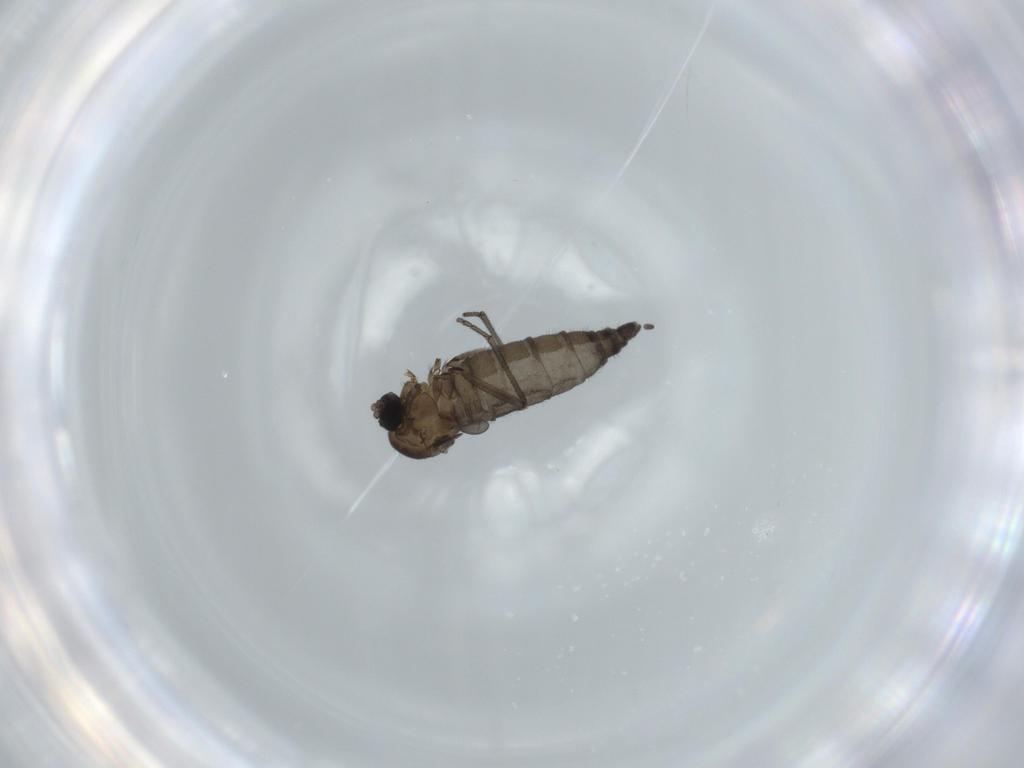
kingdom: Animalia
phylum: Arthropoda
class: Insecta
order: Diptera
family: Sciaridae
